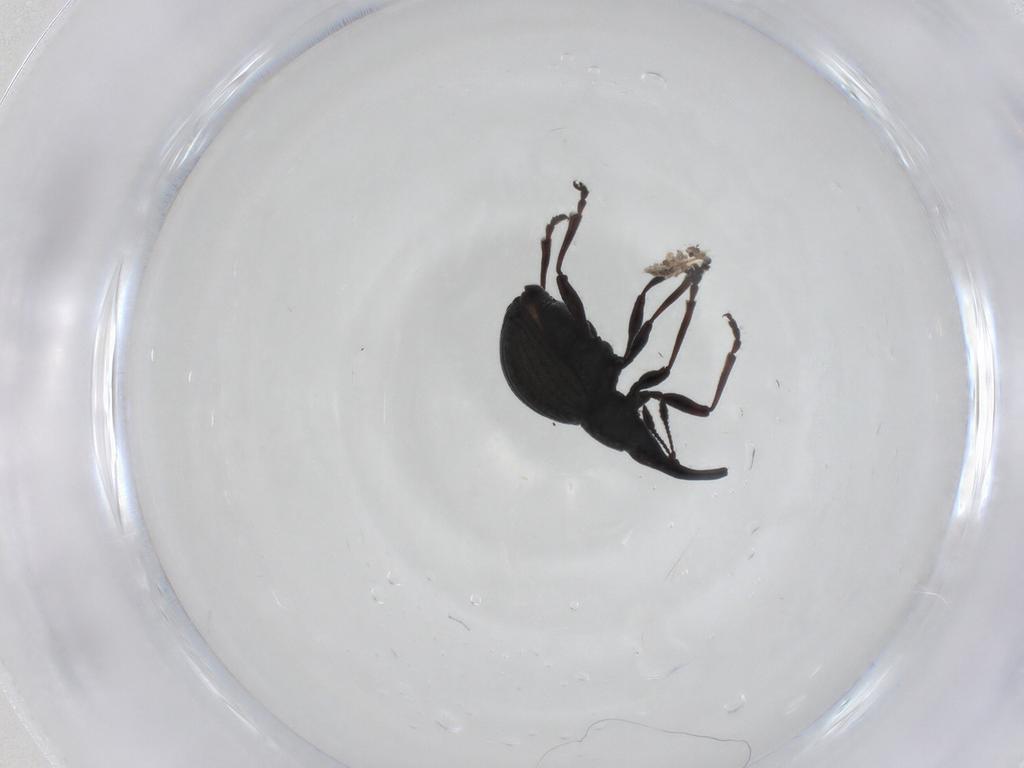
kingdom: Animalia
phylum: Arthropoda
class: Insecta
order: Coleoptera
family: Brentidae
